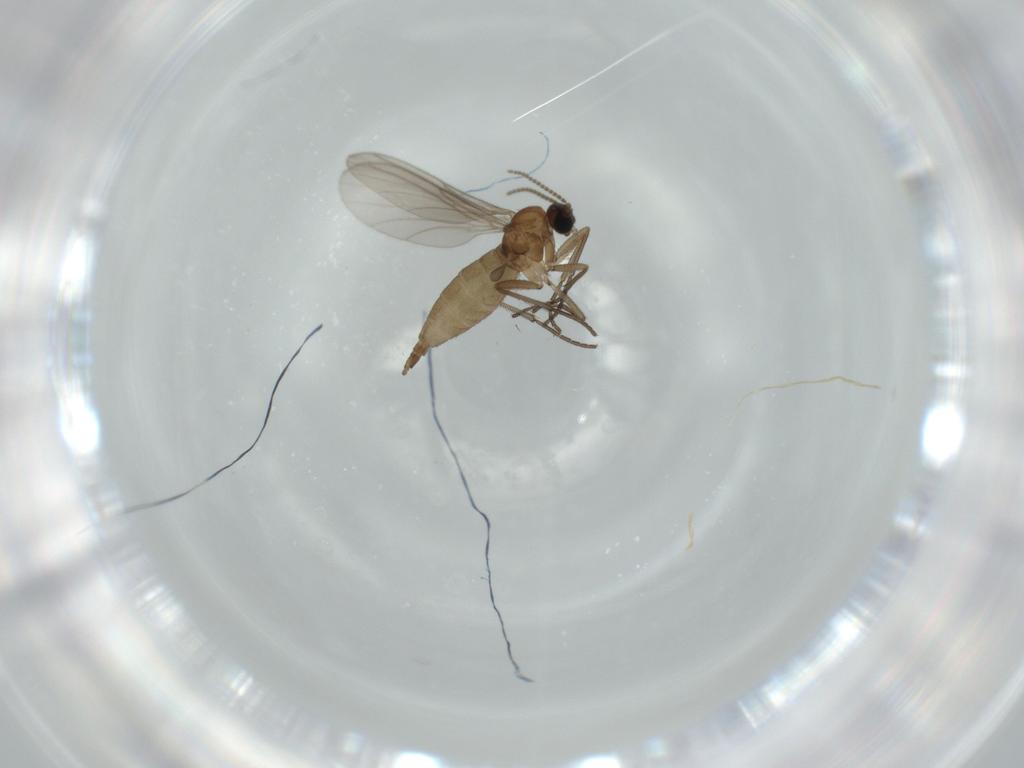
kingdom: Animalia
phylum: Arthropoda
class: Insecta
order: Diptera
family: Sciaridae
